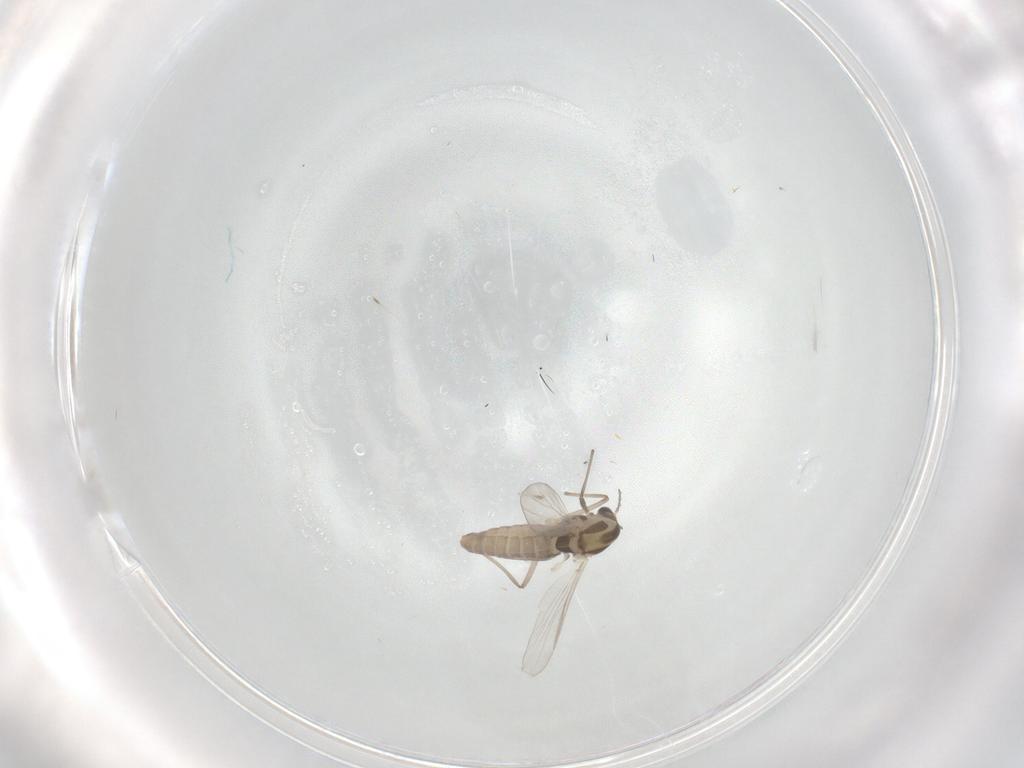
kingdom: Animalia
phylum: Arthropoda
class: Insecta
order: Diptera
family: Chironomidae
